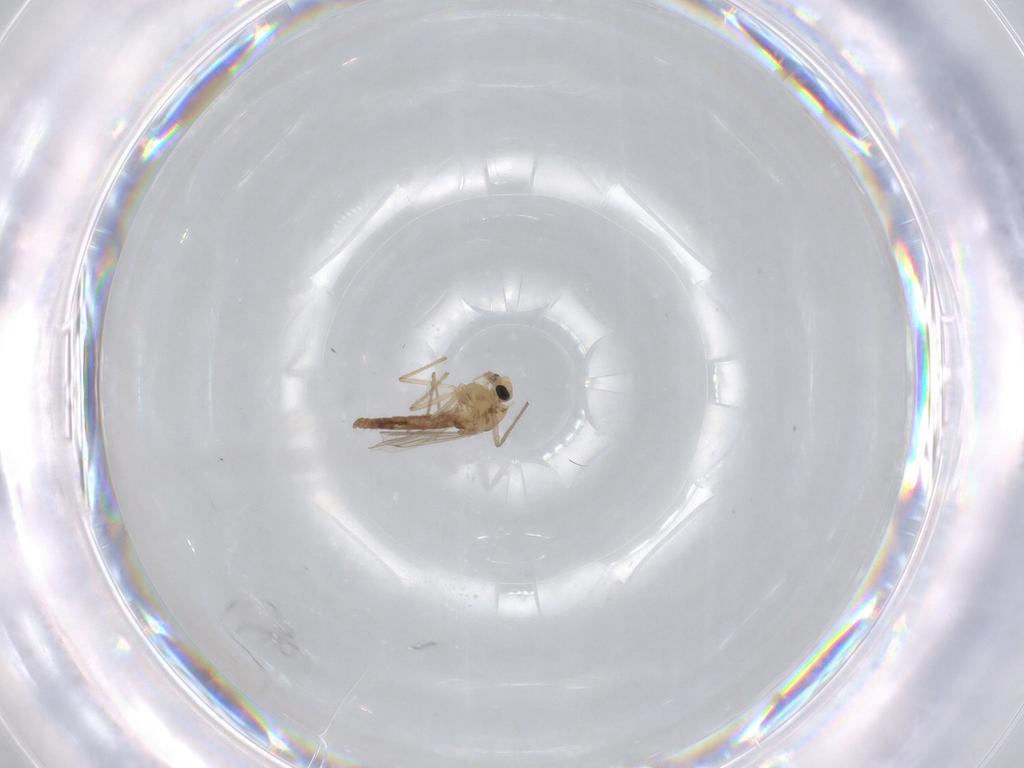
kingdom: Animalia
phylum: Arthropoda
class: Insecta
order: Diptera
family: Chironomidae
